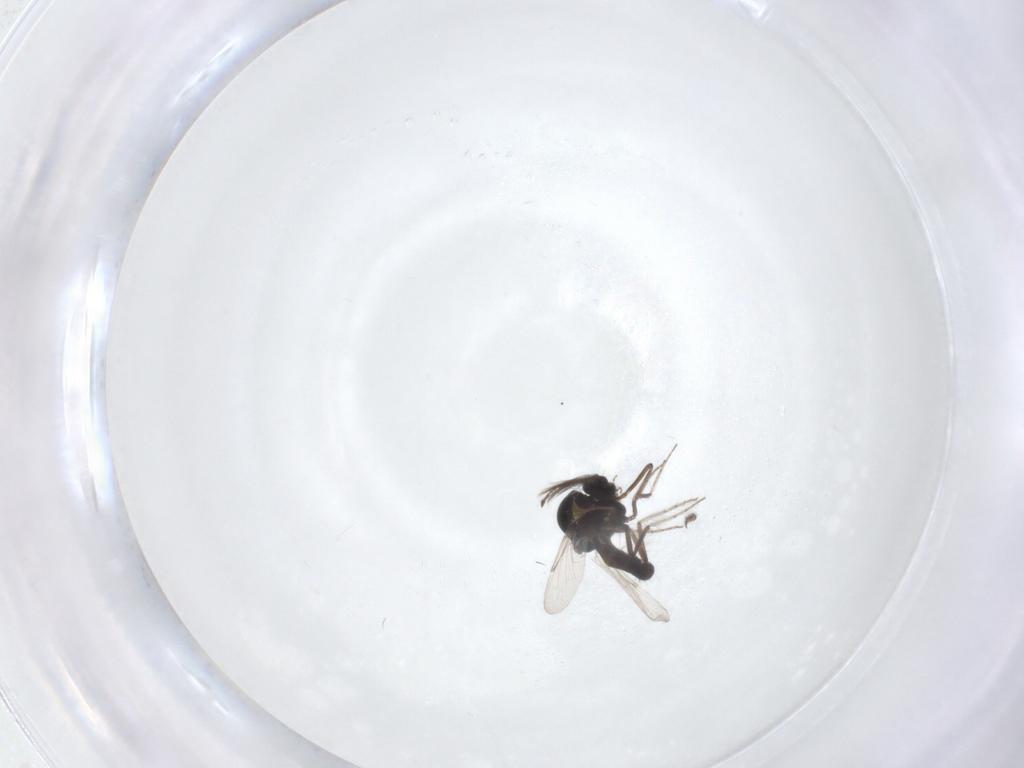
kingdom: Animalia
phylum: Arthropoda
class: Insecta
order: Diptera
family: Ceratopogonidae
